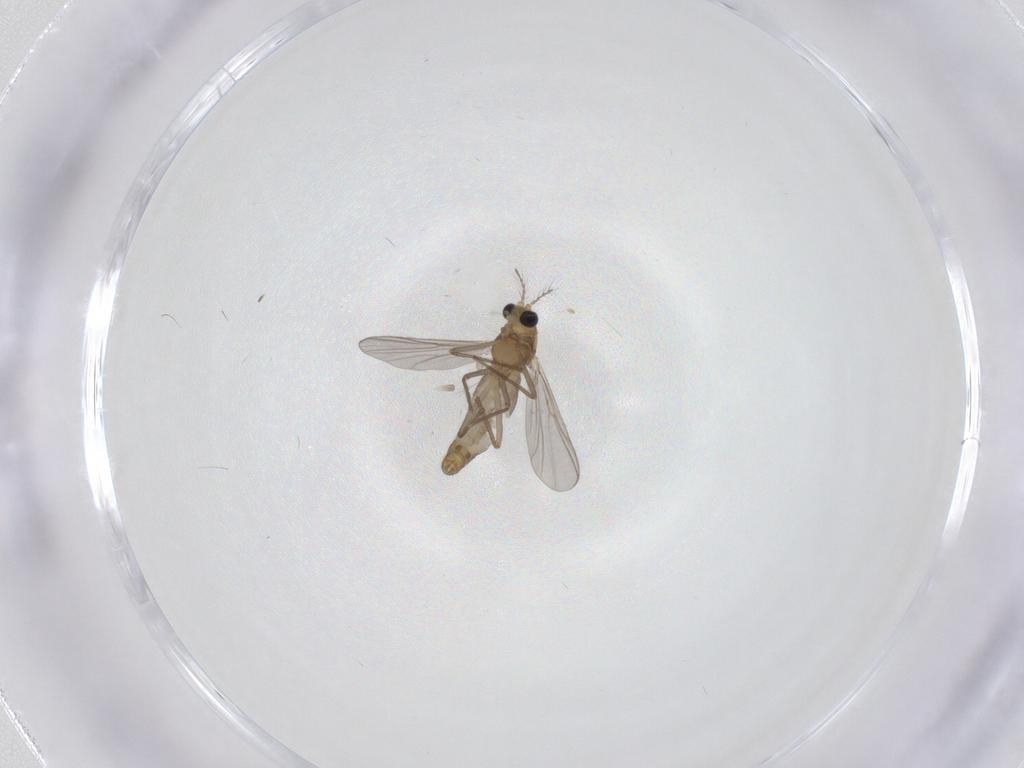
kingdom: Animalia
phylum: Arthropoda
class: Insecta
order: Diptera
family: Chironomidae
